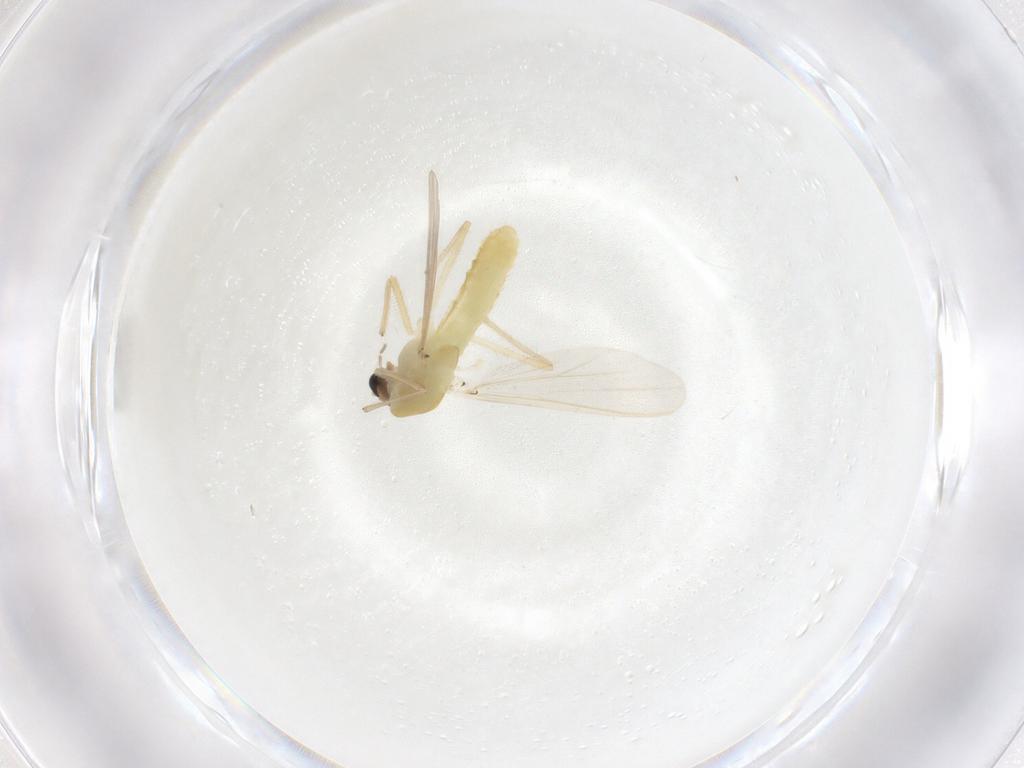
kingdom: Animalia
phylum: Arthropoda
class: Insecta
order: Diptera
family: Chironomidae
